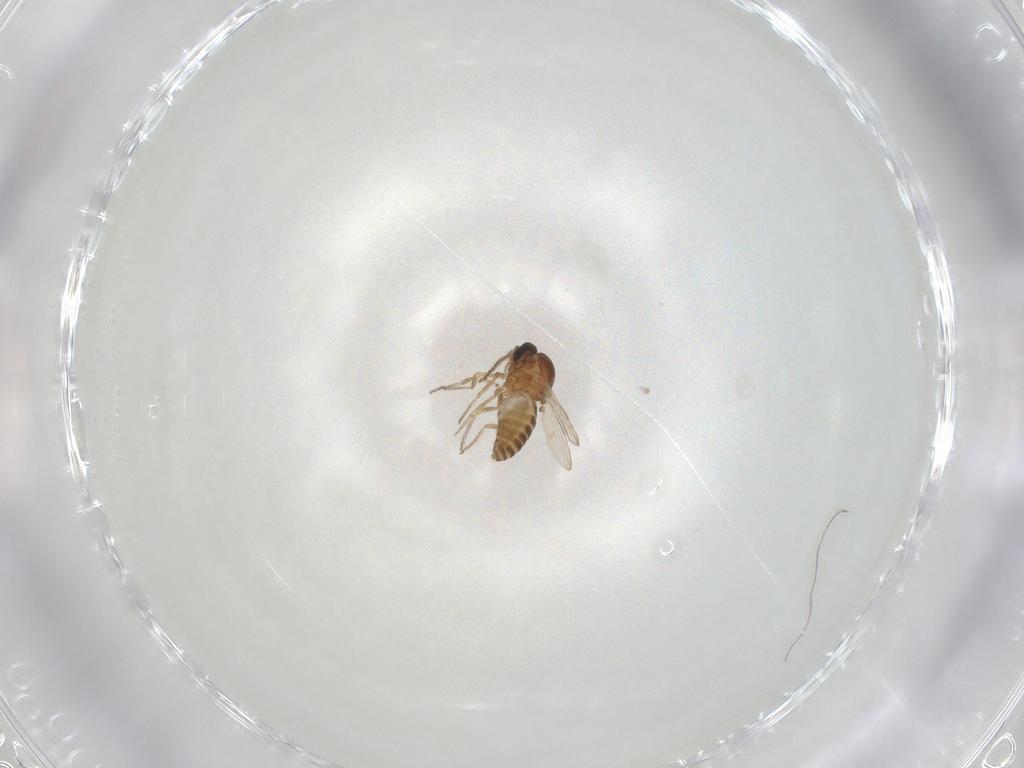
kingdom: Animalia
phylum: Arthropoda
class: Insecta
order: Diptera
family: Ceratopogonidae
